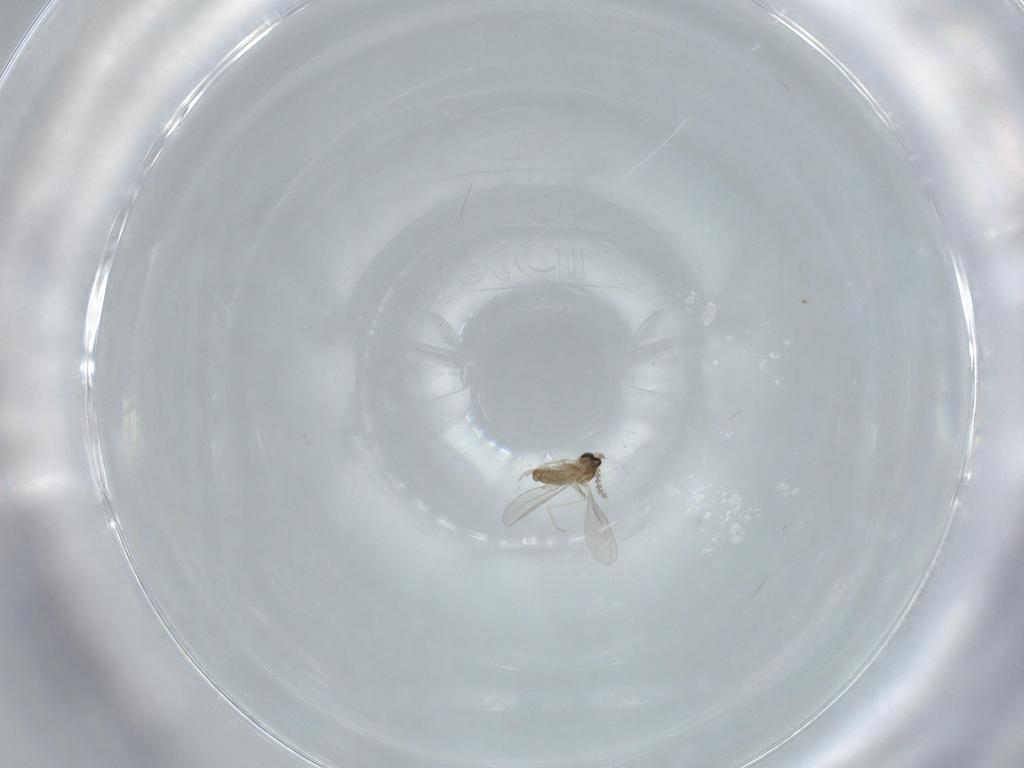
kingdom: Animalia
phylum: Arthropoda
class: Insecta
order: Diptera
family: Cecidomyiidae
